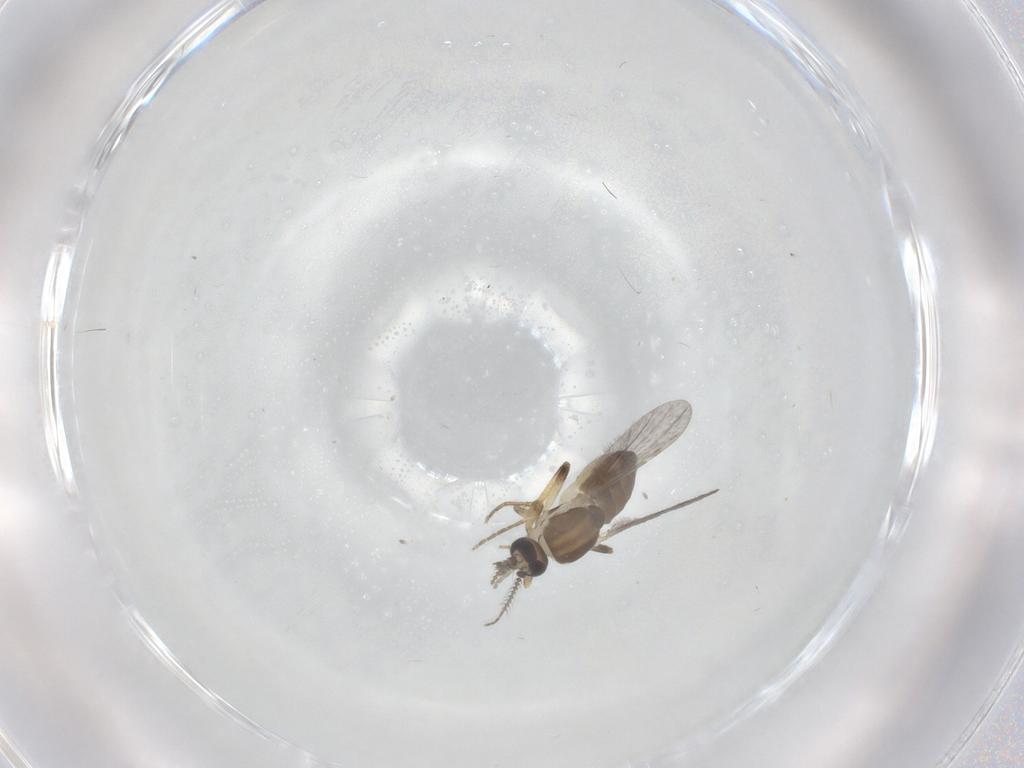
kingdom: Animalia
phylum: Arthropoda
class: Insecta
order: Diptera
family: Ceratopogonidae
